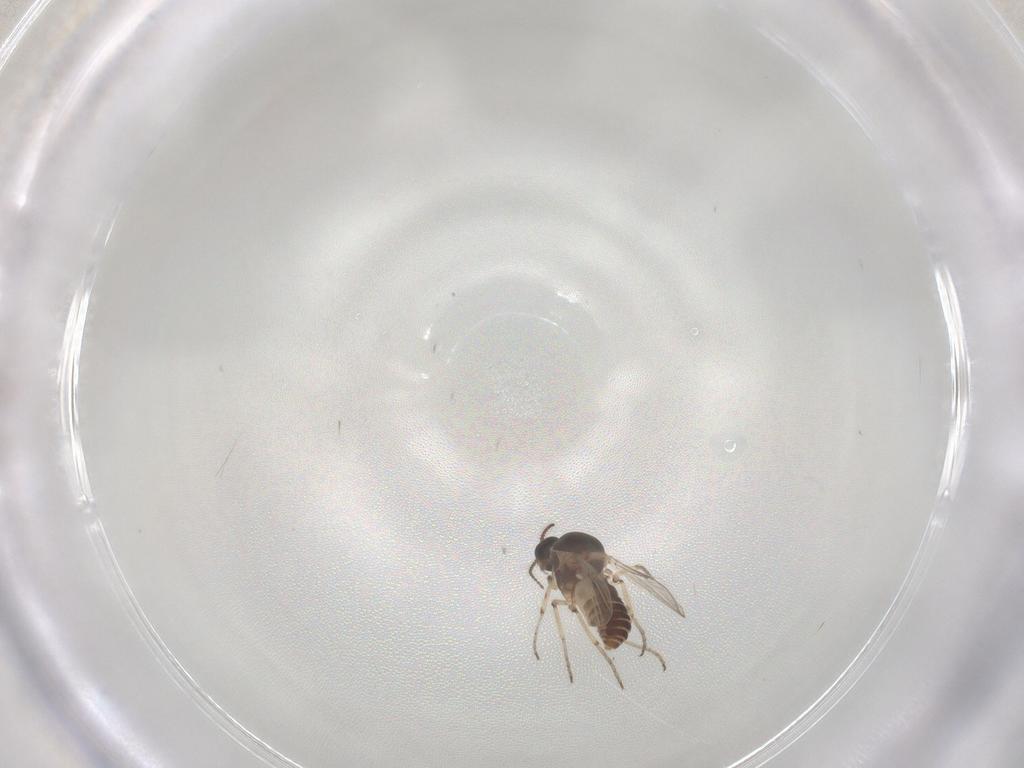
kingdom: Animalia
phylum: Arthropoda
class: Insecta
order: Diptera
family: Ceratopogonidae
